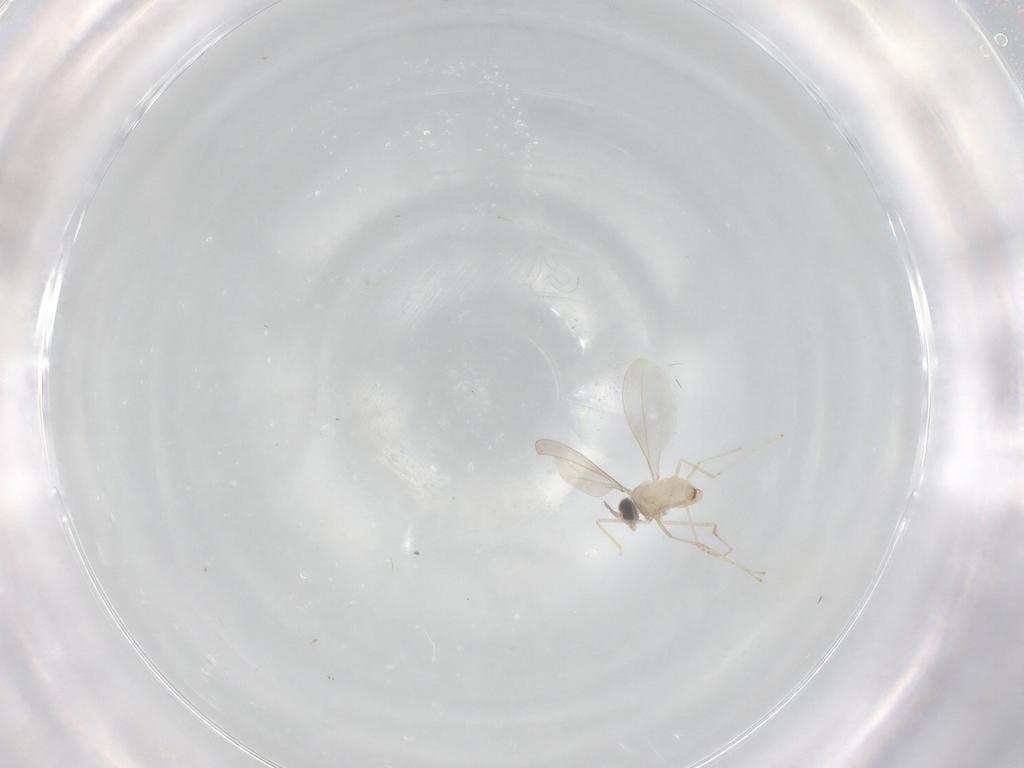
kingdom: Animalia
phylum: Arthropoda
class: Insecta
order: Diptera
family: Cecidomyiidae
